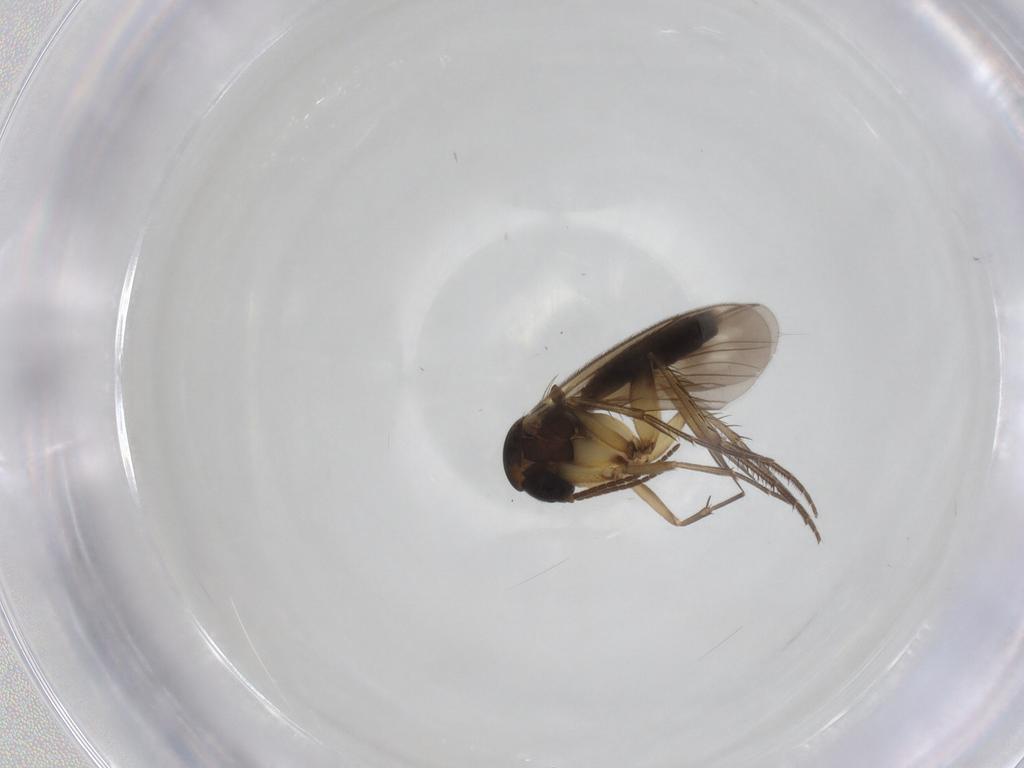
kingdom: Animalia
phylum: Arthropoda
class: Insecta
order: Diptera
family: Mycetophilidae
